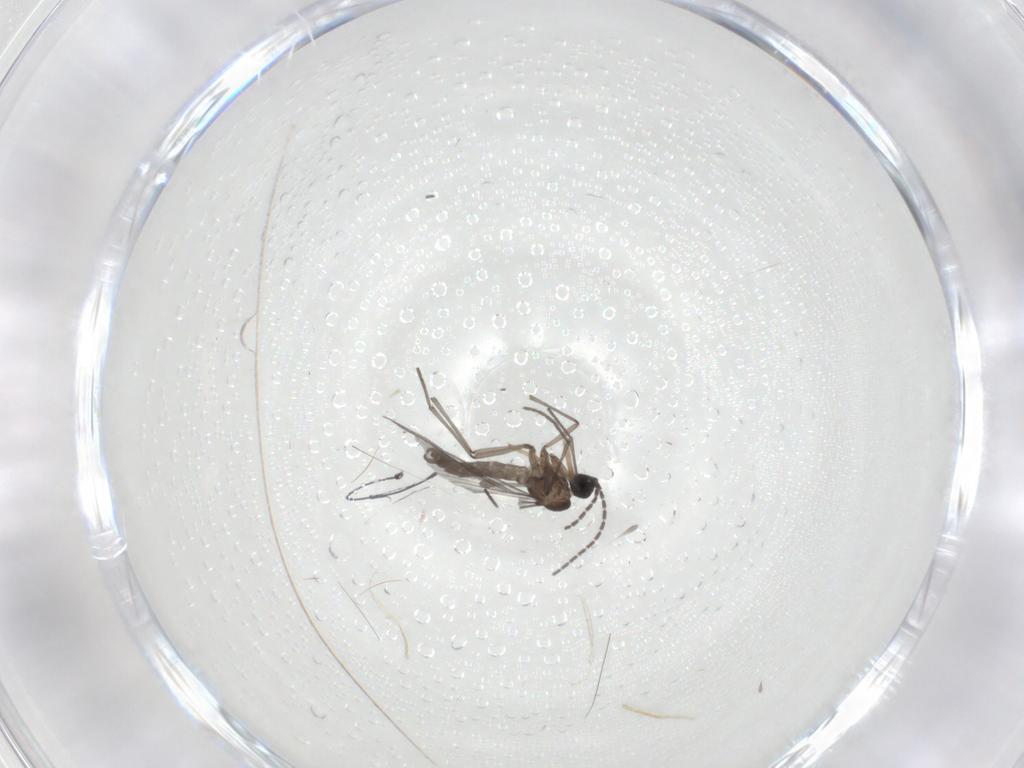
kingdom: Animalia
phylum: Arthropoda
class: Insecta
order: Diptera
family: Sciaridae
